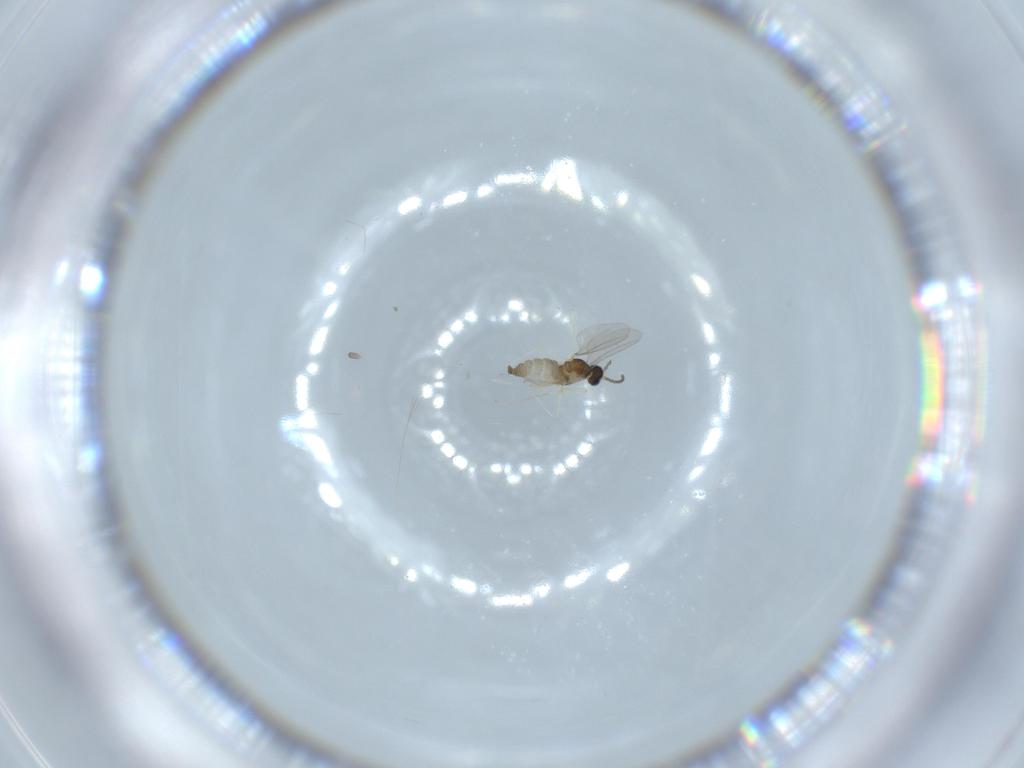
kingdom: Animalia
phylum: Arthropoda
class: Insecta
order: Diptera
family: Cecidomyiidae
